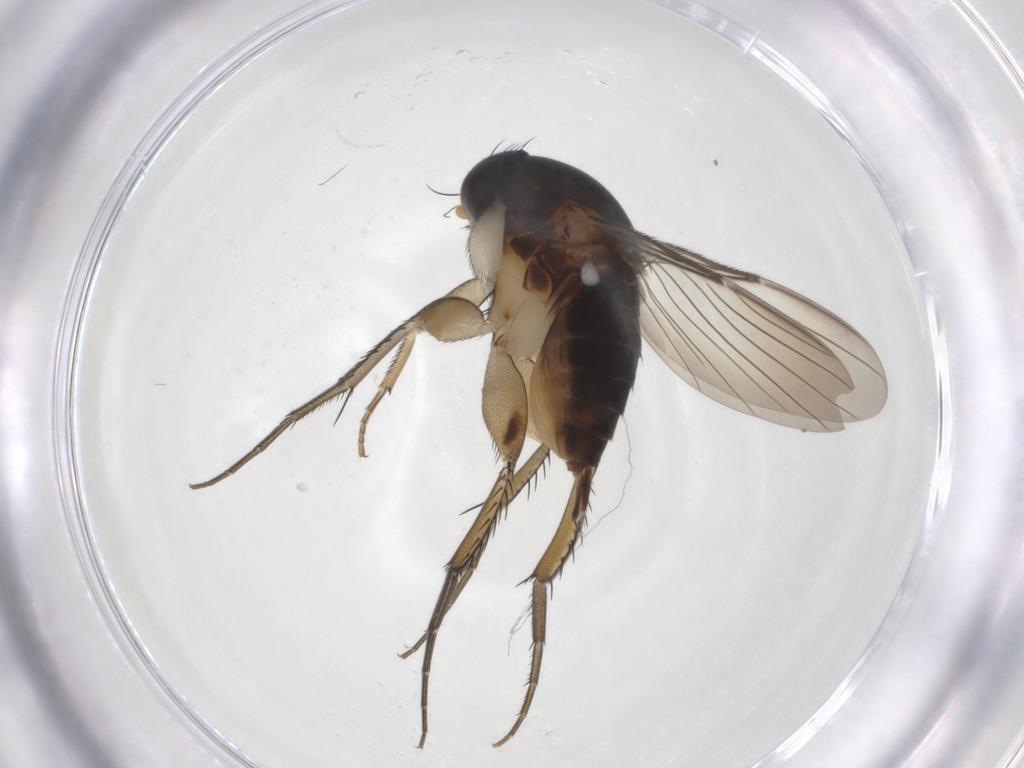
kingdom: Animalia
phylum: Arthropoda
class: Insecta
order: Diptera
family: Phoridae
